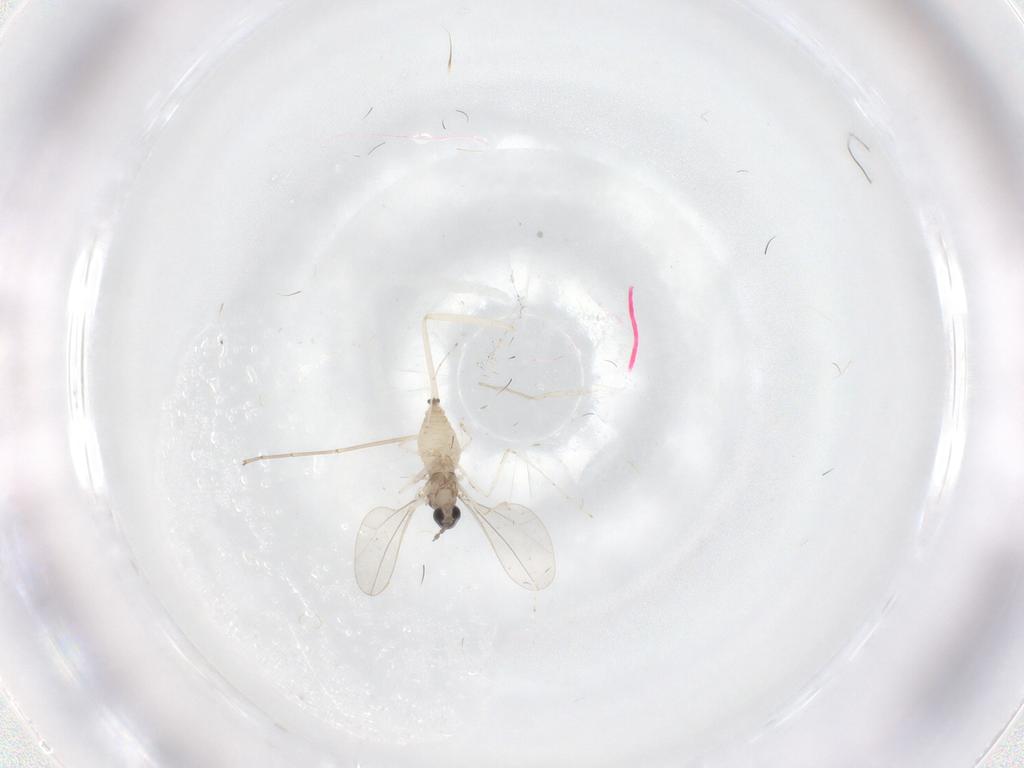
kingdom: Animalia
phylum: Arthropoda
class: Insecta
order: Diptera
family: Cecidomyiidae
